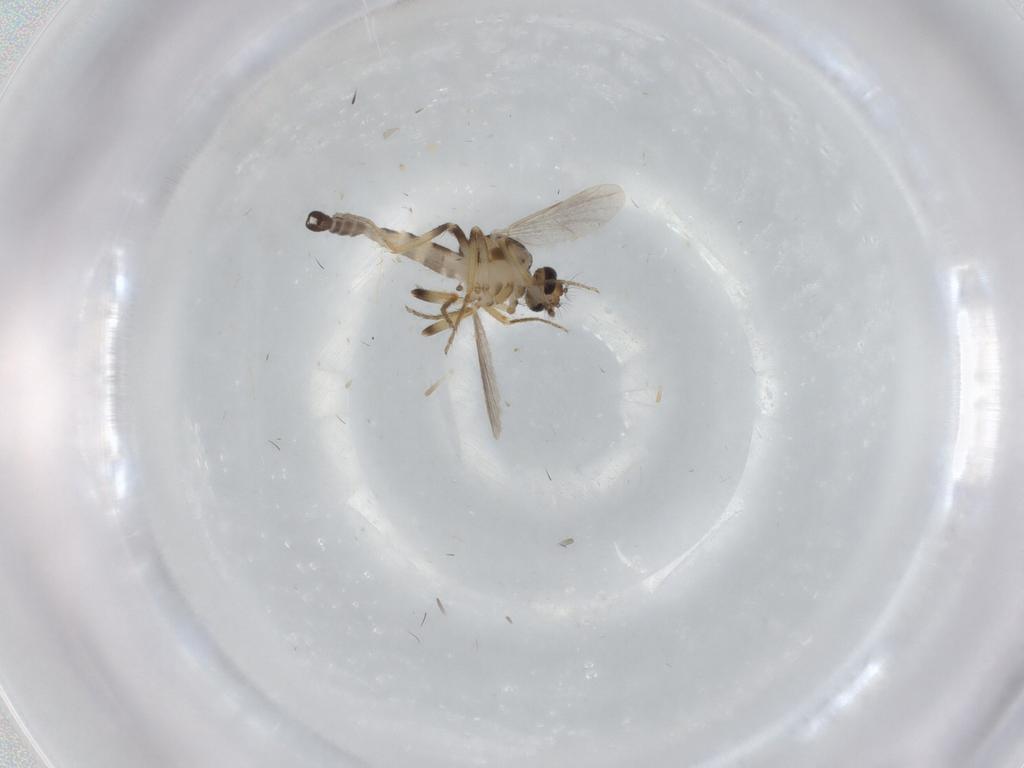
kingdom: Animalia
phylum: Arthropoda
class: Insecta
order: Diptera
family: Ceratopogonidae
